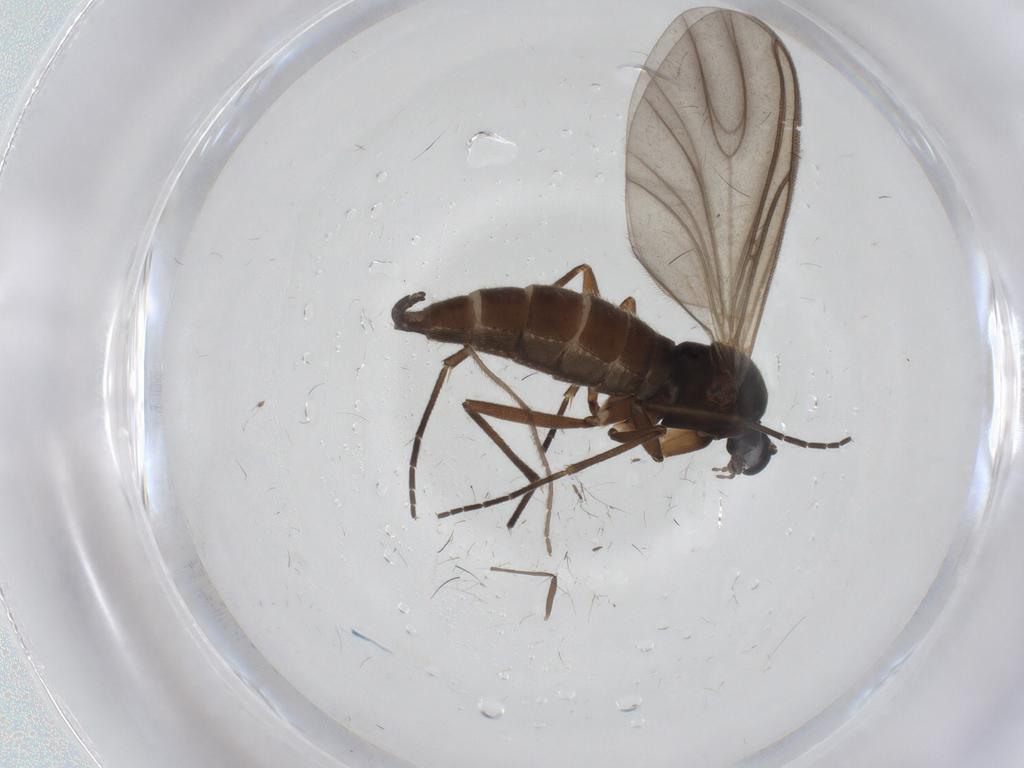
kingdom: Animalia
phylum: Arthropoda
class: Insecta
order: Diptera
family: Sciaridae
